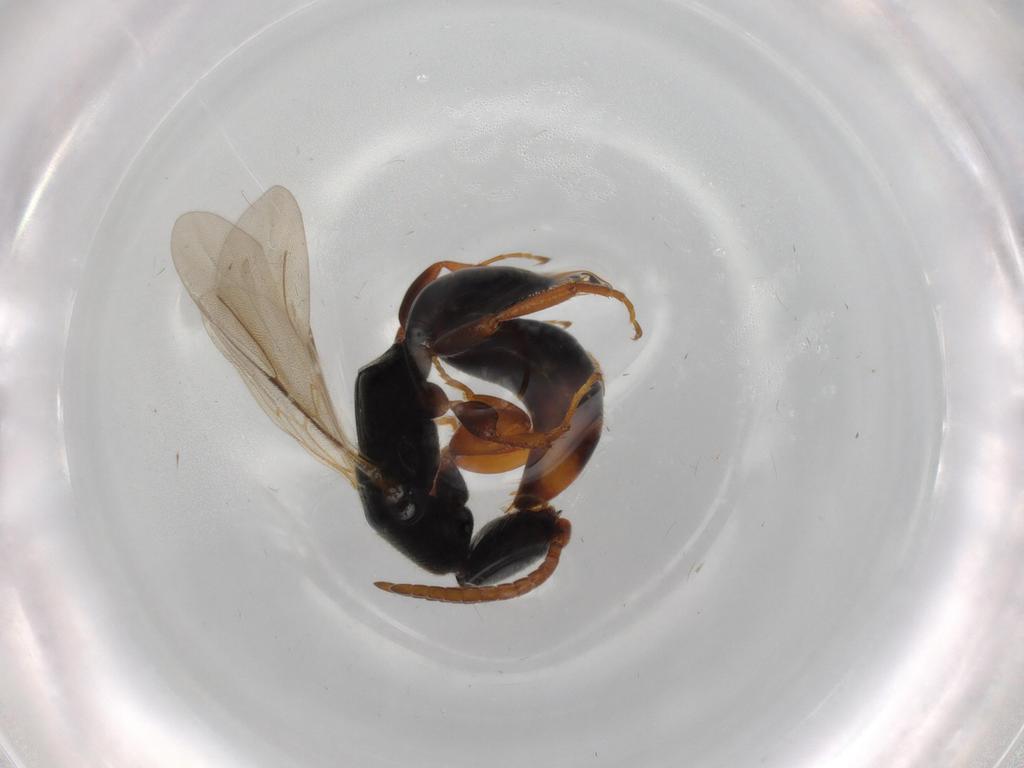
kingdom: Animalia
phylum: Arthropoda
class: Insecta
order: Hymenoptera
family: Bethylidae
